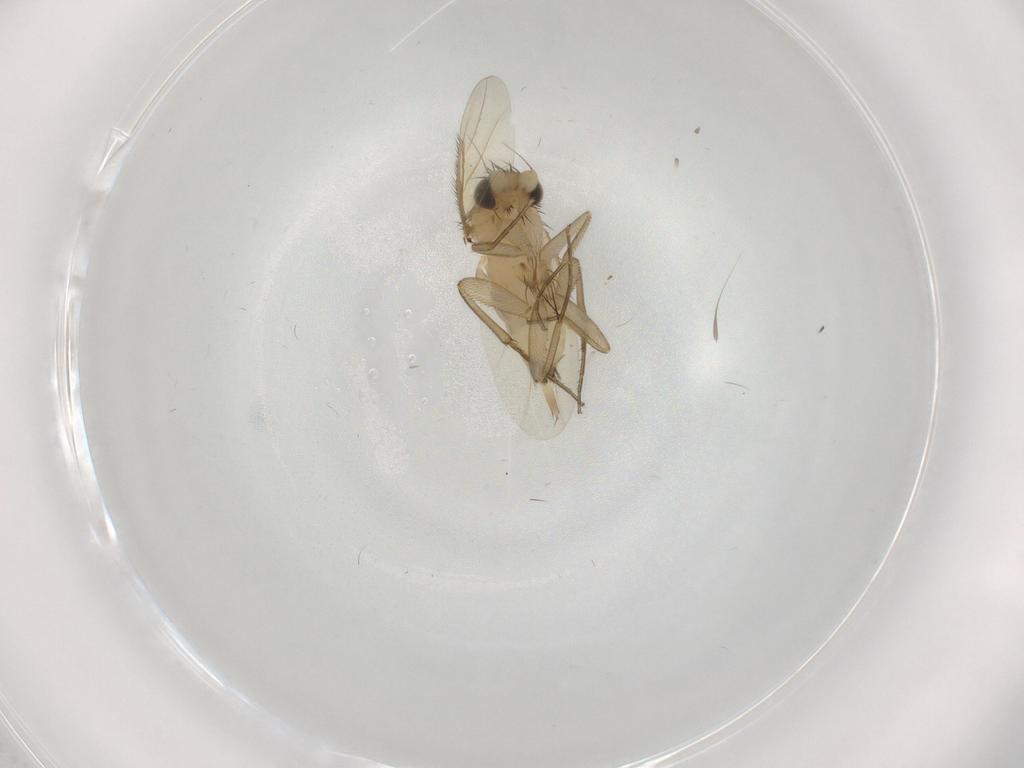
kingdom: Animalia
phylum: Arthropoda
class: Insecta
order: Diptera
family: Phoridae
